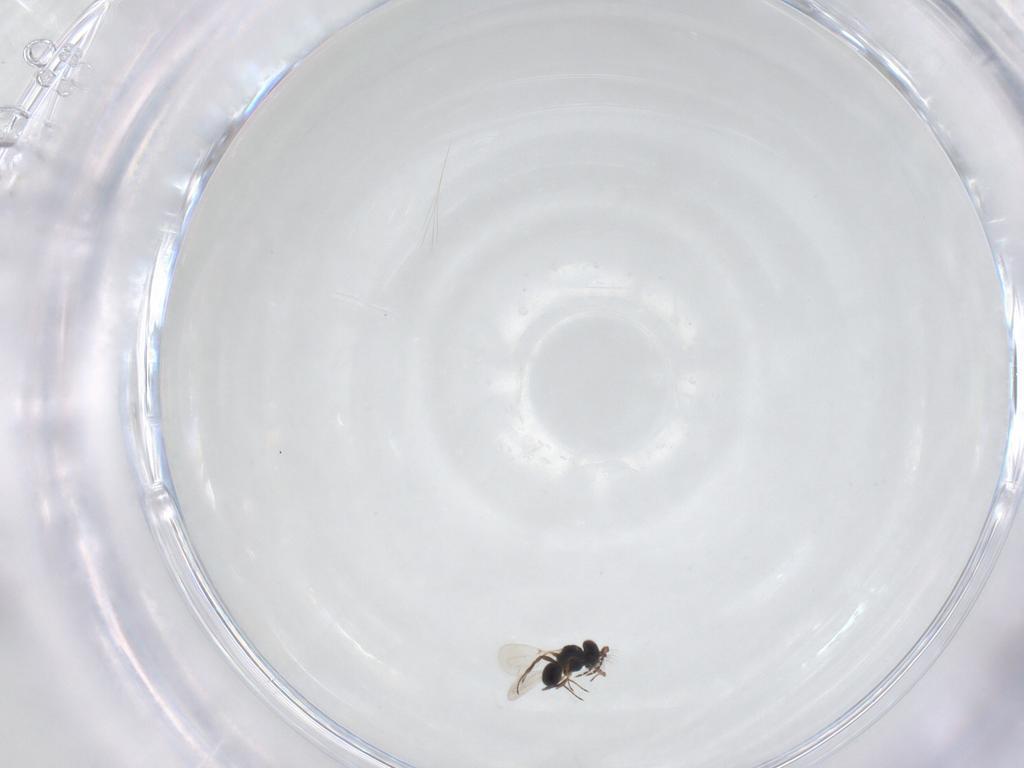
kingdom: Animalia
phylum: Arthropoda
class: Insecta
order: Hymenoptera
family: Platygastridae
